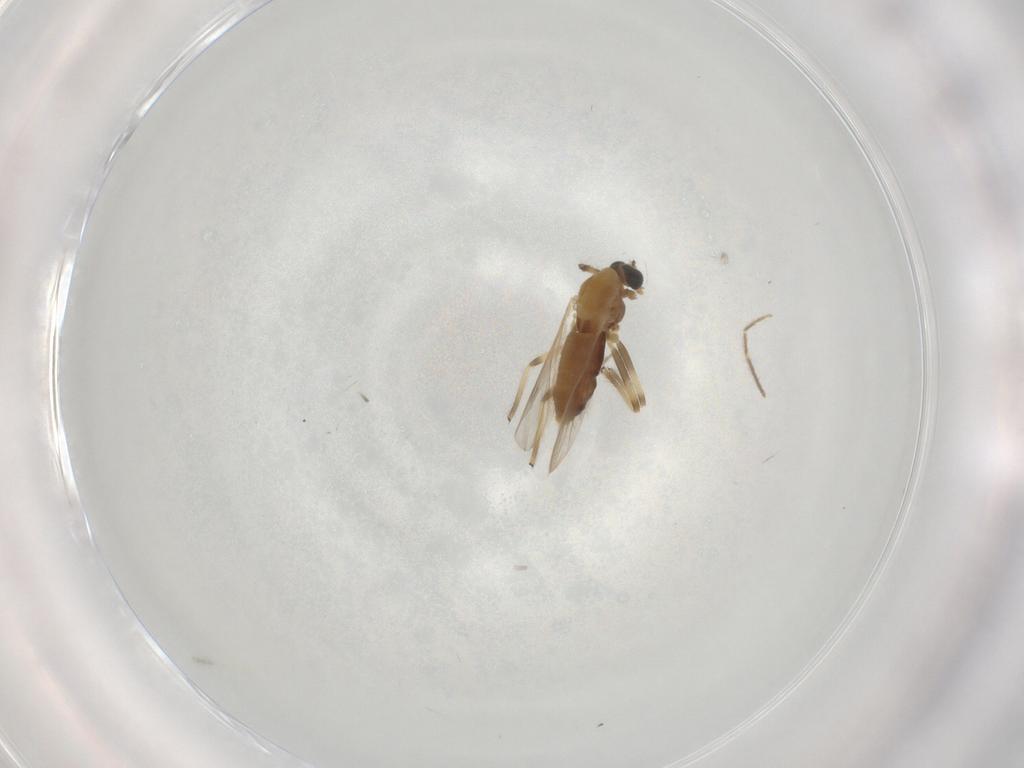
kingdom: Animalia
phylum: Arthropoda
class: Insecta
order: Diptera
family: Chironomidae
